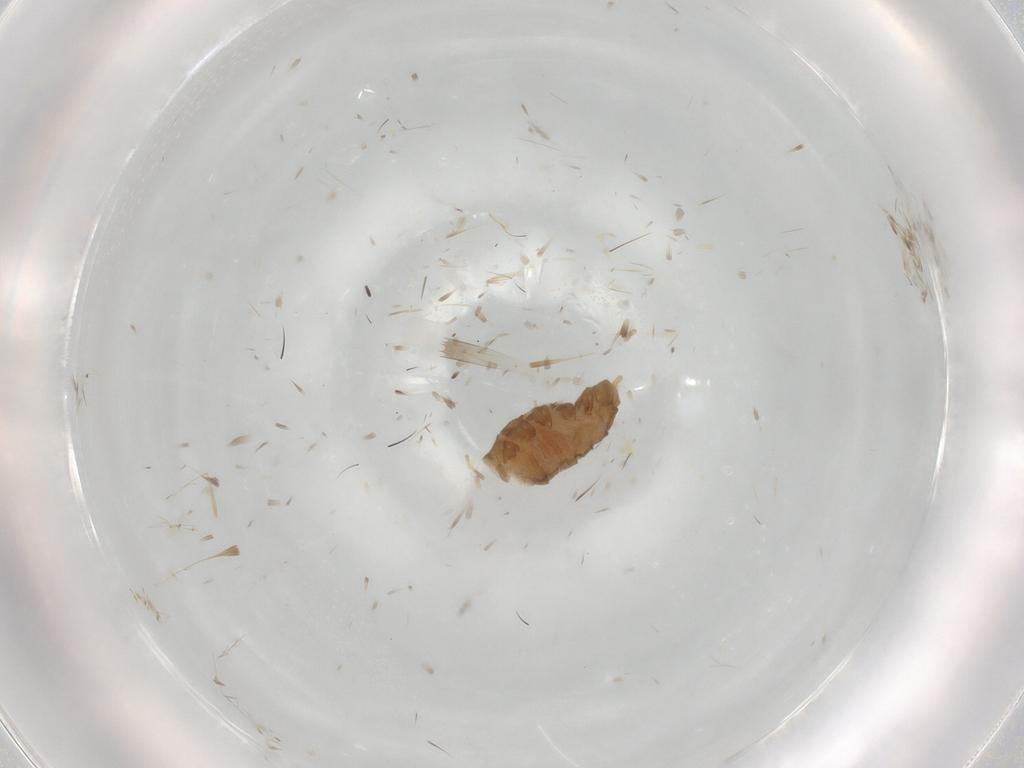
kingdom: Animalia
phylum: Arthropoda
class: Insecta
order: Diptera
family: Cecidomyiidae
